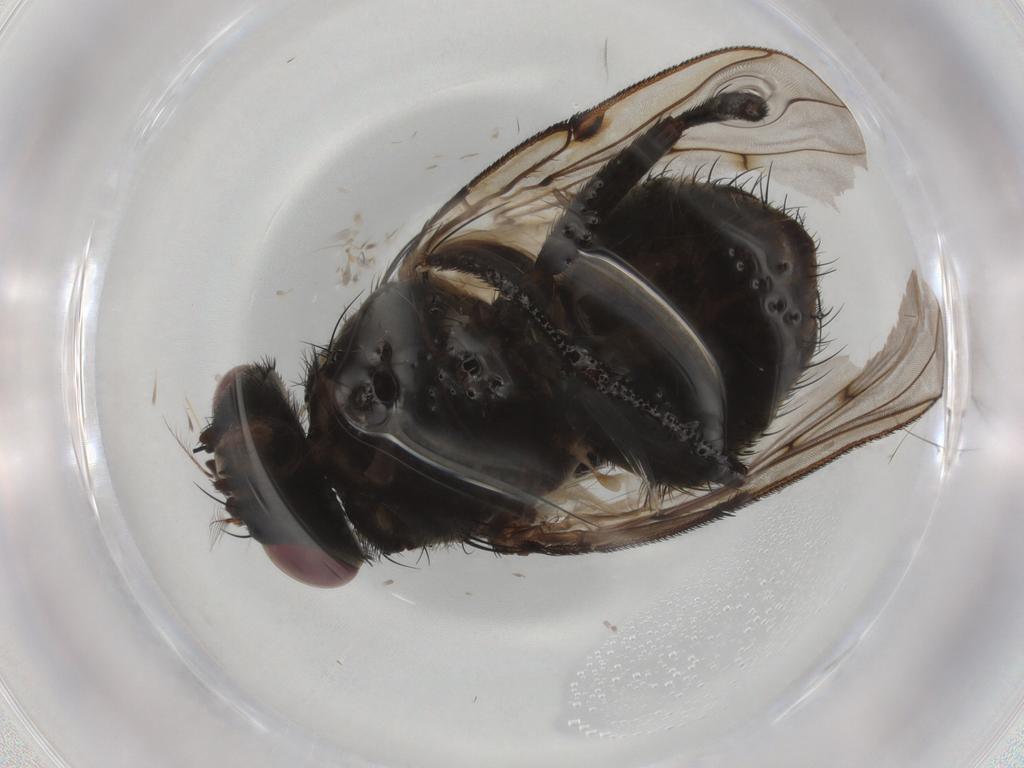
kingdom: Animalia
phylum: Arthropoda
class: Insecta
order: Diptera
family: Muscidae
